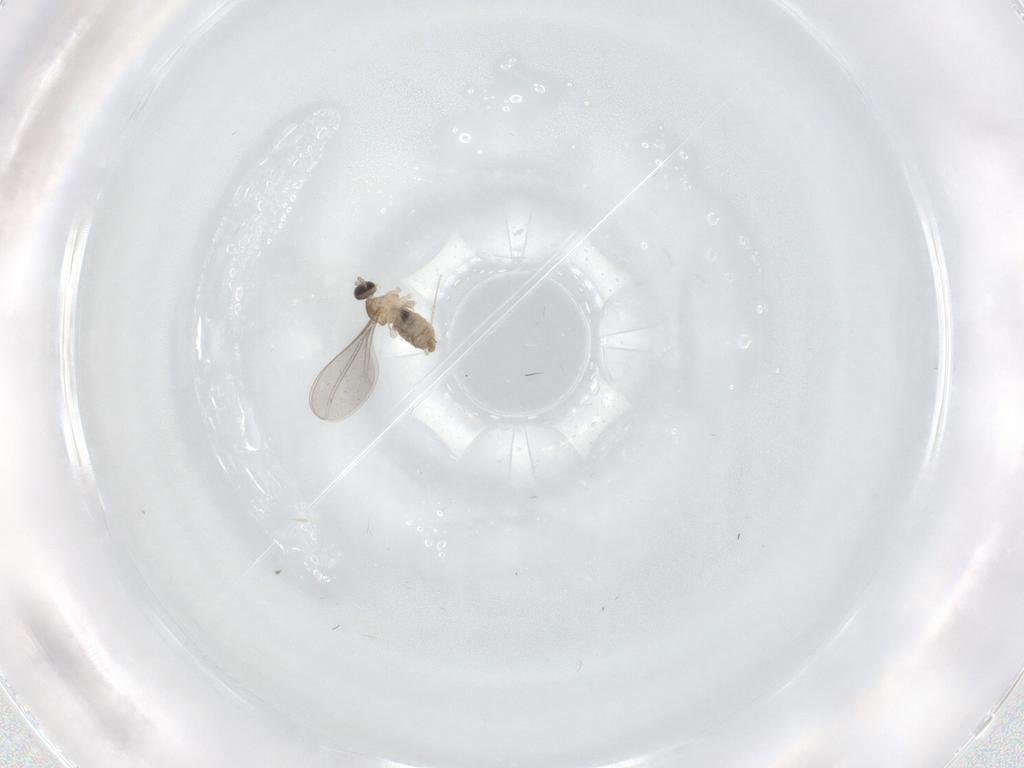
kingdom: Animalia
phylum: Arthropoda
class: Insecta
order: Diptera
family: Cecidomyiidae
